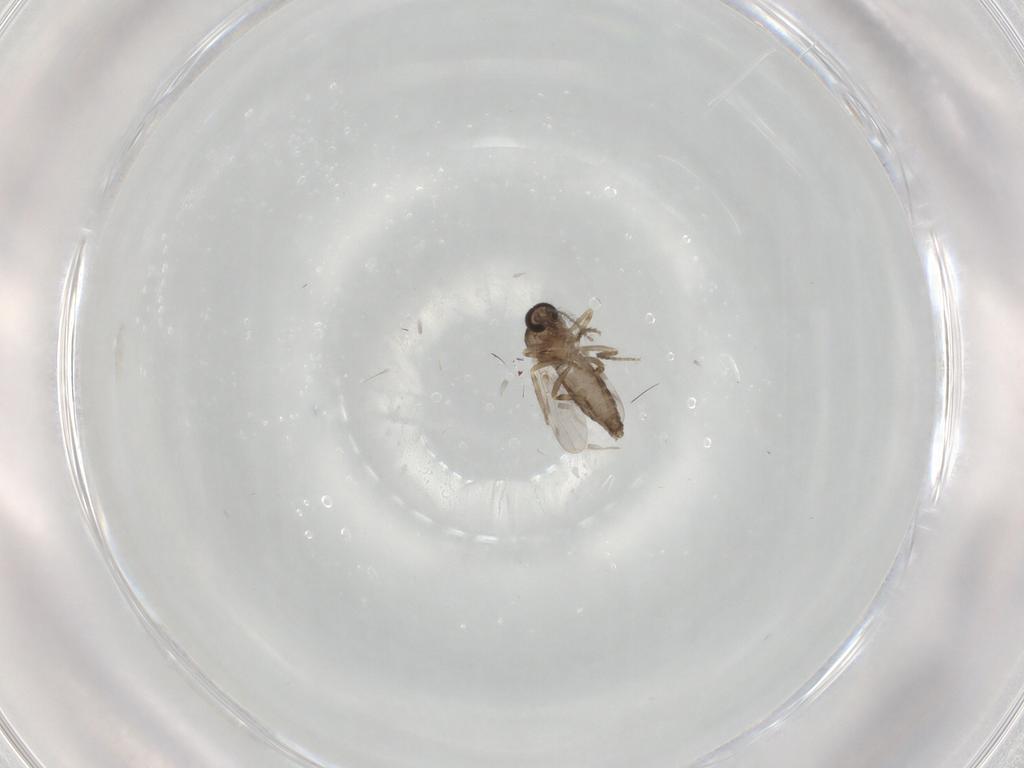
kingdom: Animalia
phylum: Arthropoda
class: Insecta
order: Diptera
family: Ceratopogonidae
